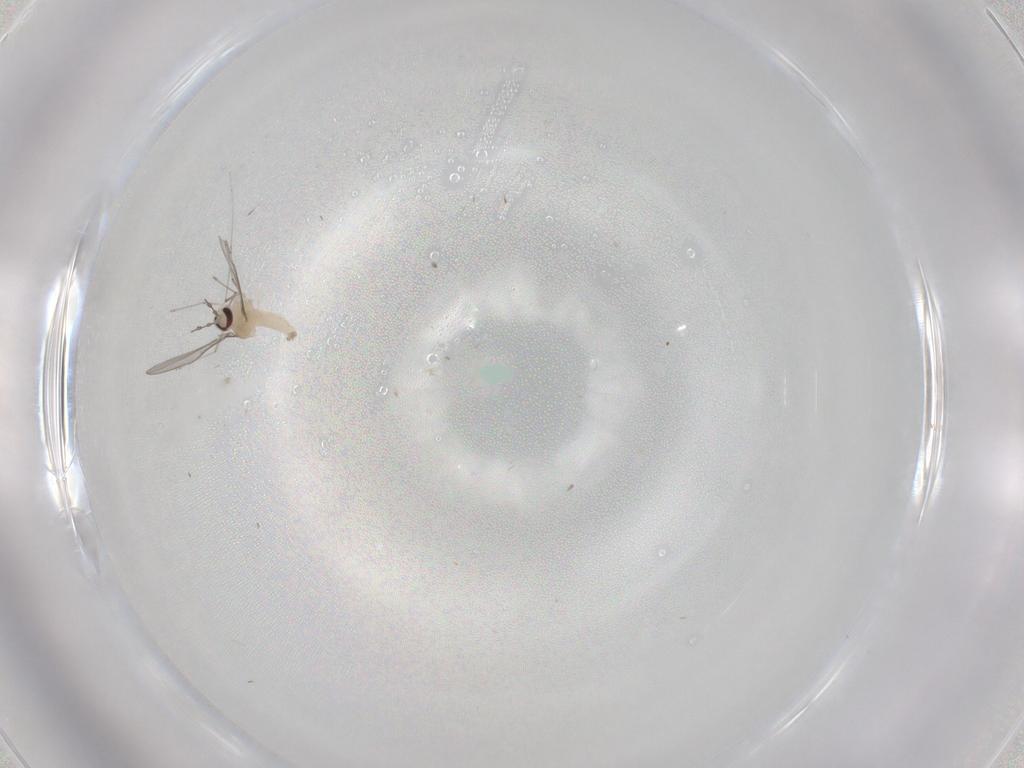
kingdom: Animalia
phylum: Arthropoda
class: Insecta
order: Diptera
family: Cecidomyiidae
